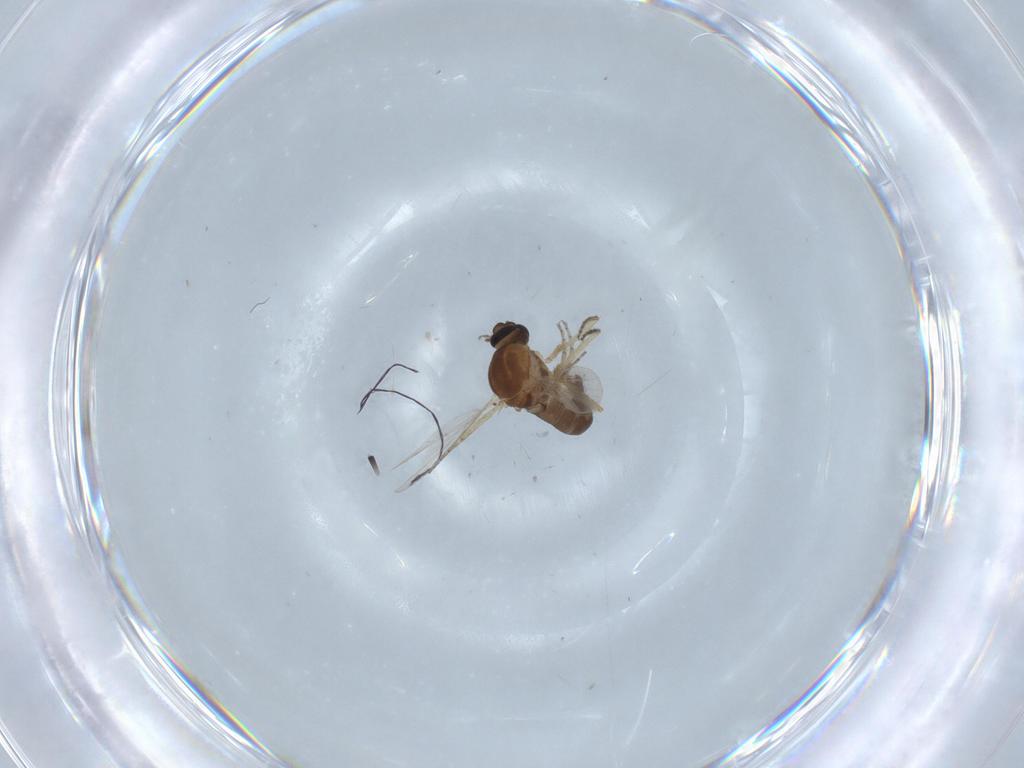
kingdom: Animalia
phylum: Arthropoda
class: Insecta
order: Diptera
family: Ceratopogonidae
